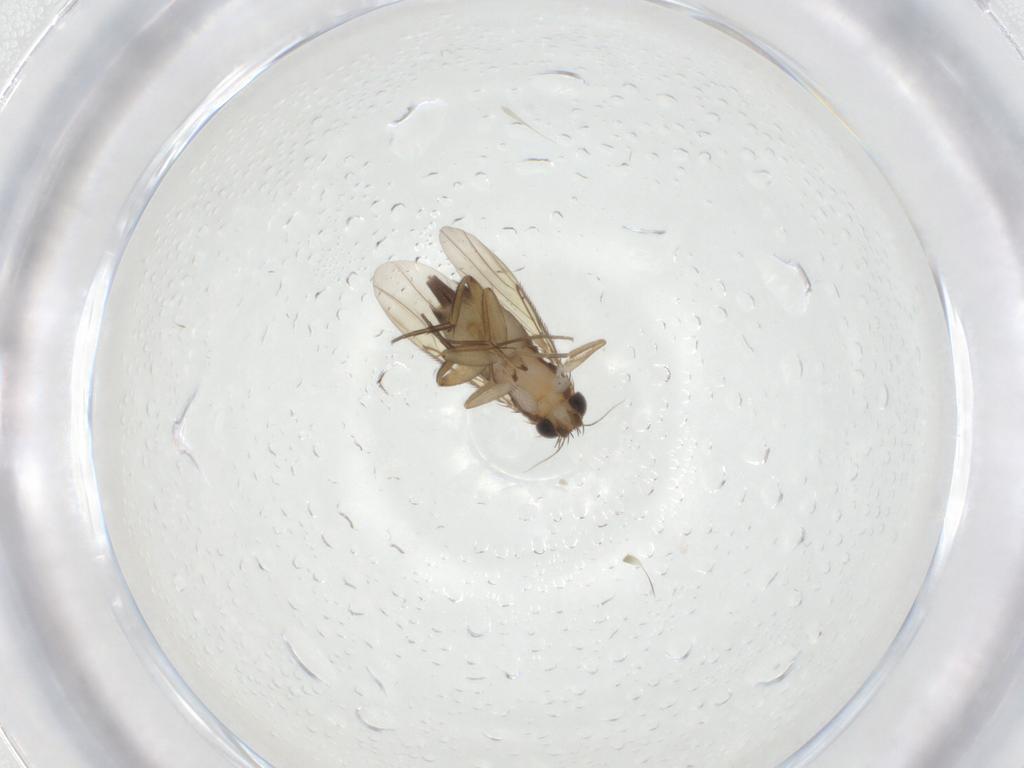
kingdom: Animalia
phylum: Arthropoda
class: Insecta
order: Diptera
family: Phoridae
